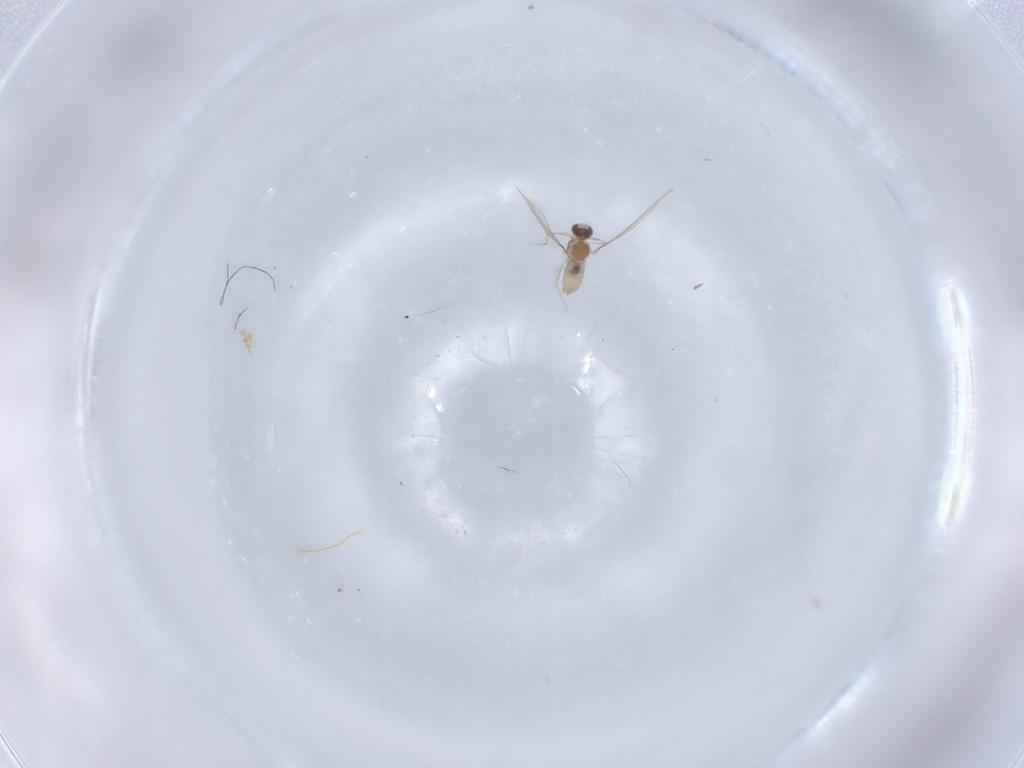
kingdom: Animalia
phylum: Arthropoda
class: Insecta
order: Diptera
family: Cecidomyiidae
